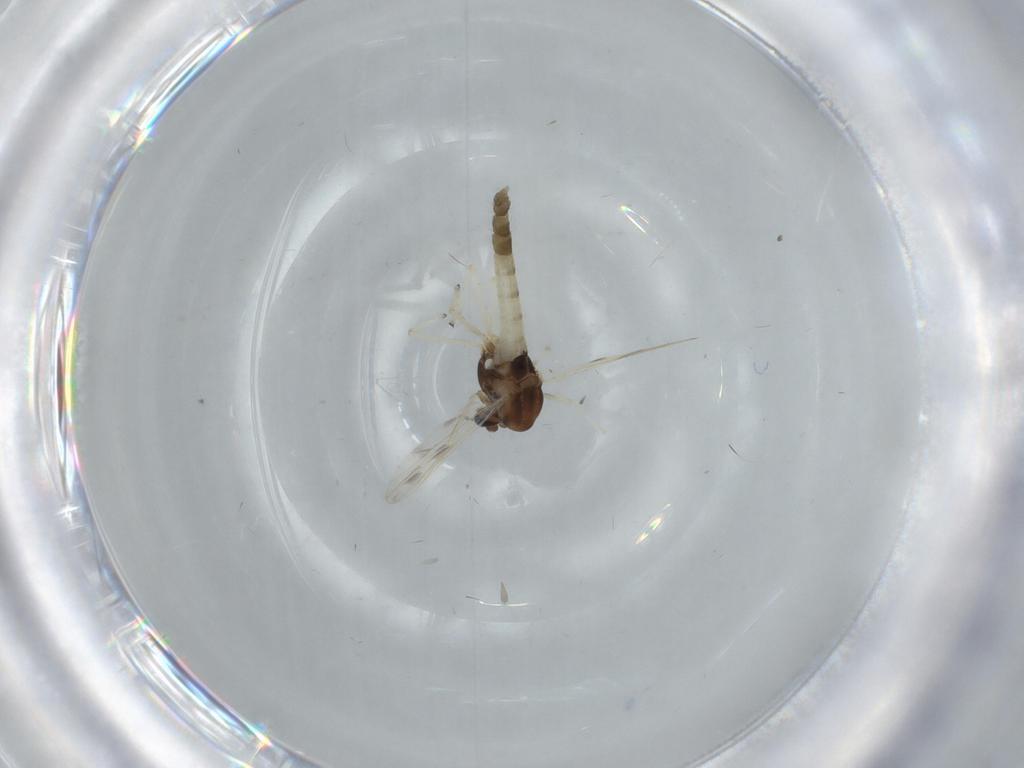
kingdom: Animalia
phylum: Arthropoda
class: Insecta
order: Diptera
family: Chironomidae
